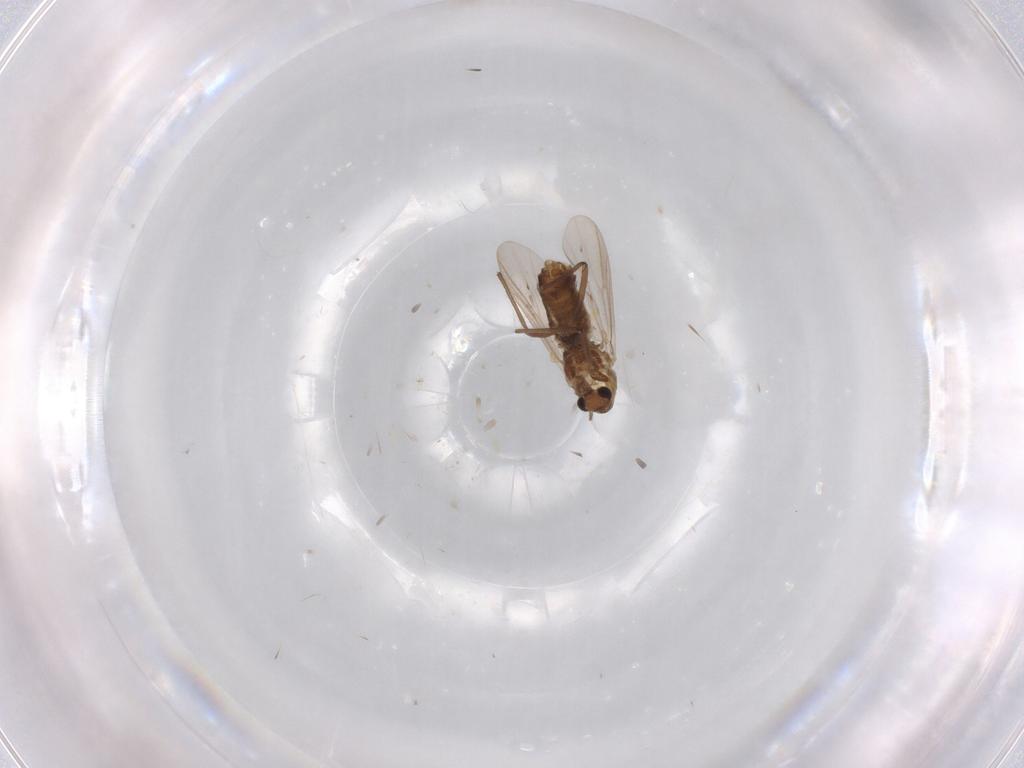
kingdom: Animalia
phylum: Arthropoda
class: Insecta
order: Diptera
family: Chironomidae
